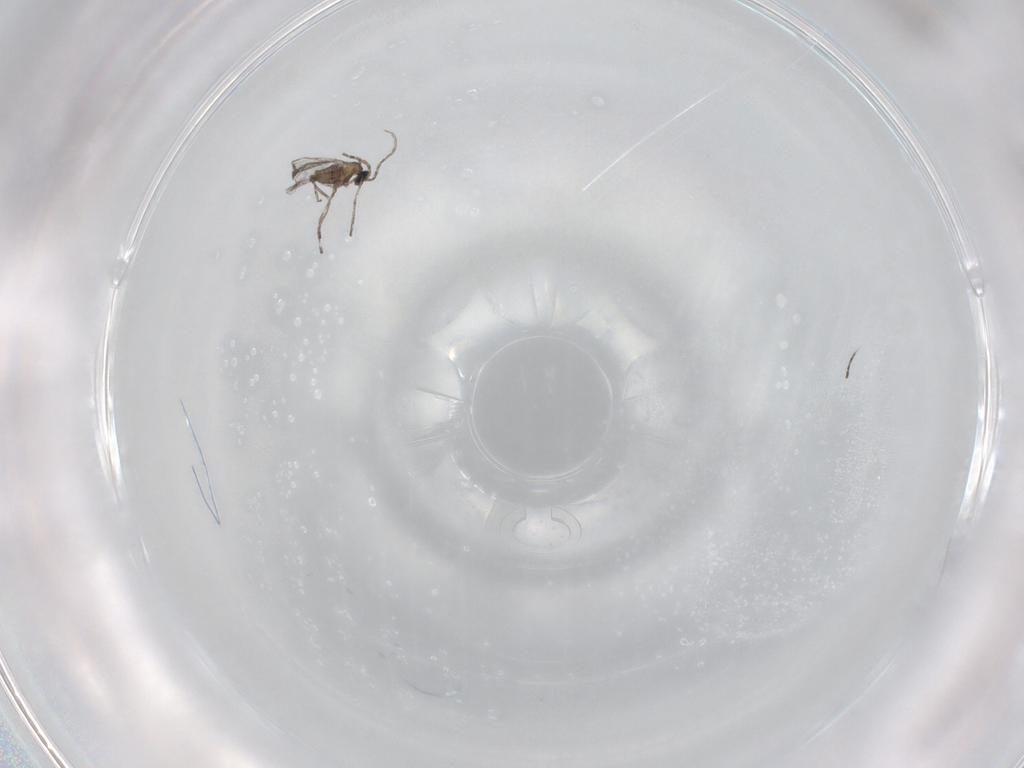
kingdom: Animalia
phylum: Arthropoda
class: Insecta
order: Diptera
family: Cecidomyiidae
